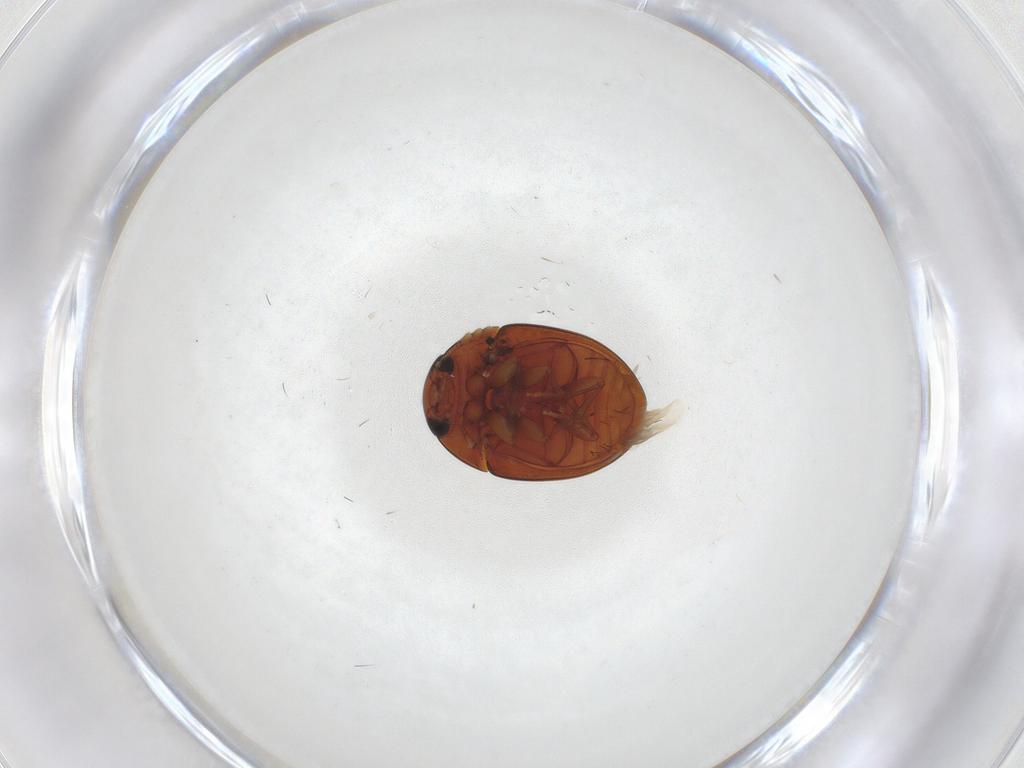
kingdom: Animalia
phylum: Arthropoda
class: Insecta
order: Coleoptera
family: Phalacridae
